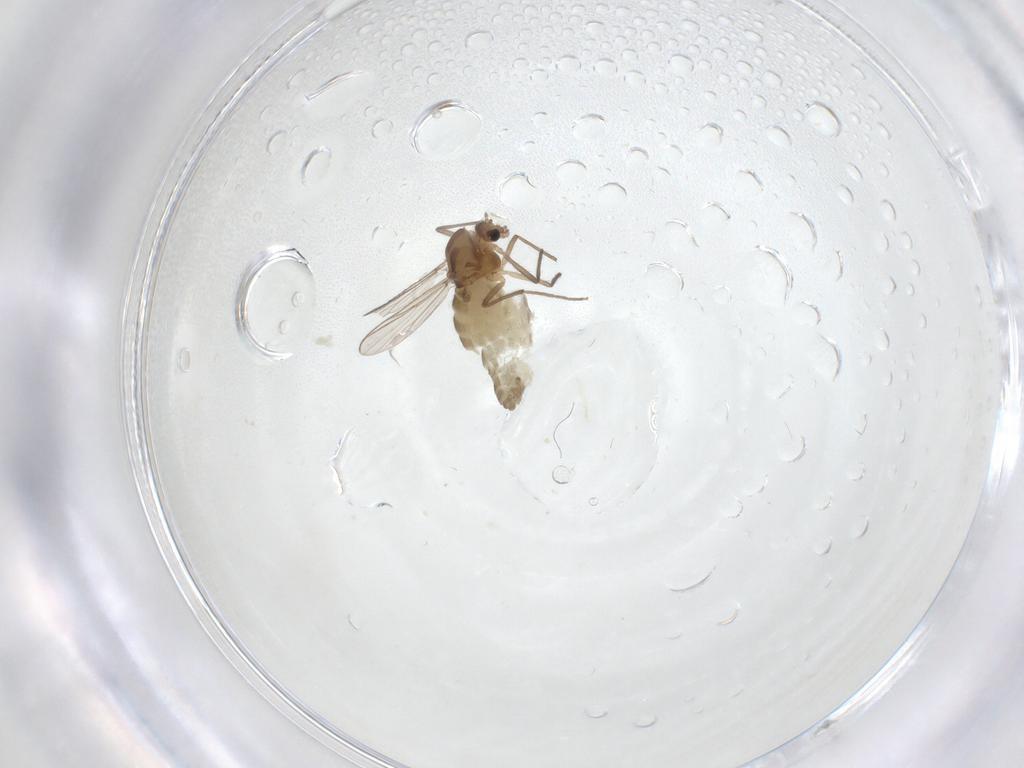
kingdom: Animalia
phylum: Arthropoda
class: Insecta
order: Diptera
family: Chironomidae
